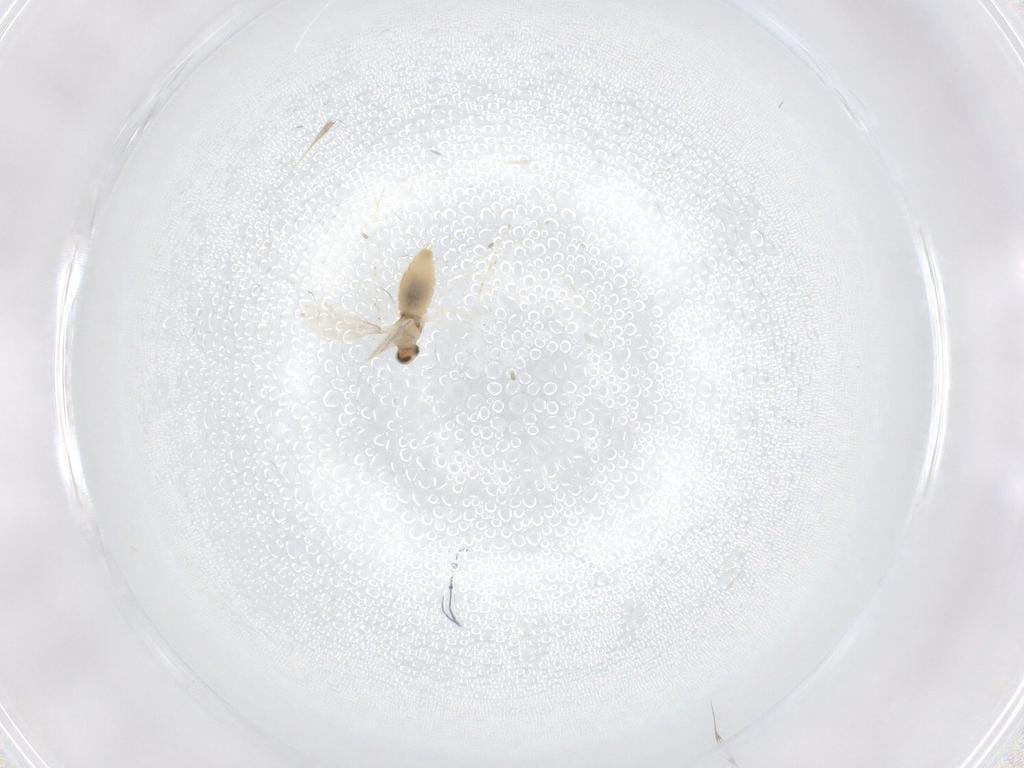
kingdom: Animalia
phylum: Arthropoda
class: Insecta
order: Diptera
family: Cecidomyiidae
